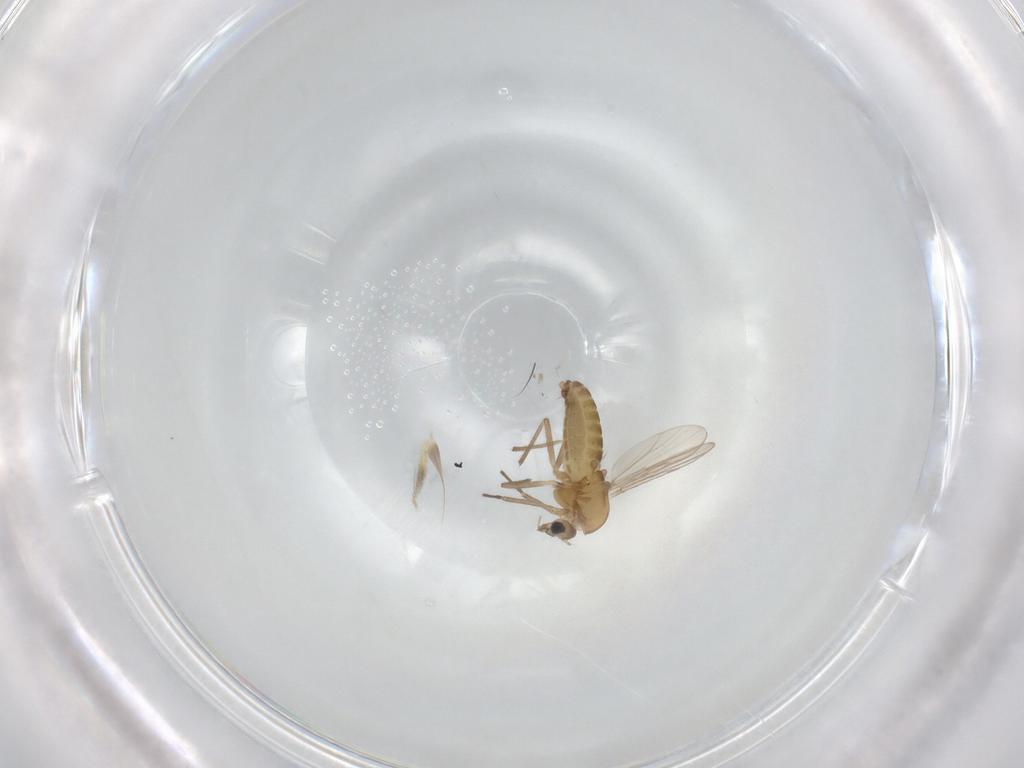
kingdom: Animalia
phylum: Arthropoda
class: Insecta
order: Diptera
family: Chironomidae
